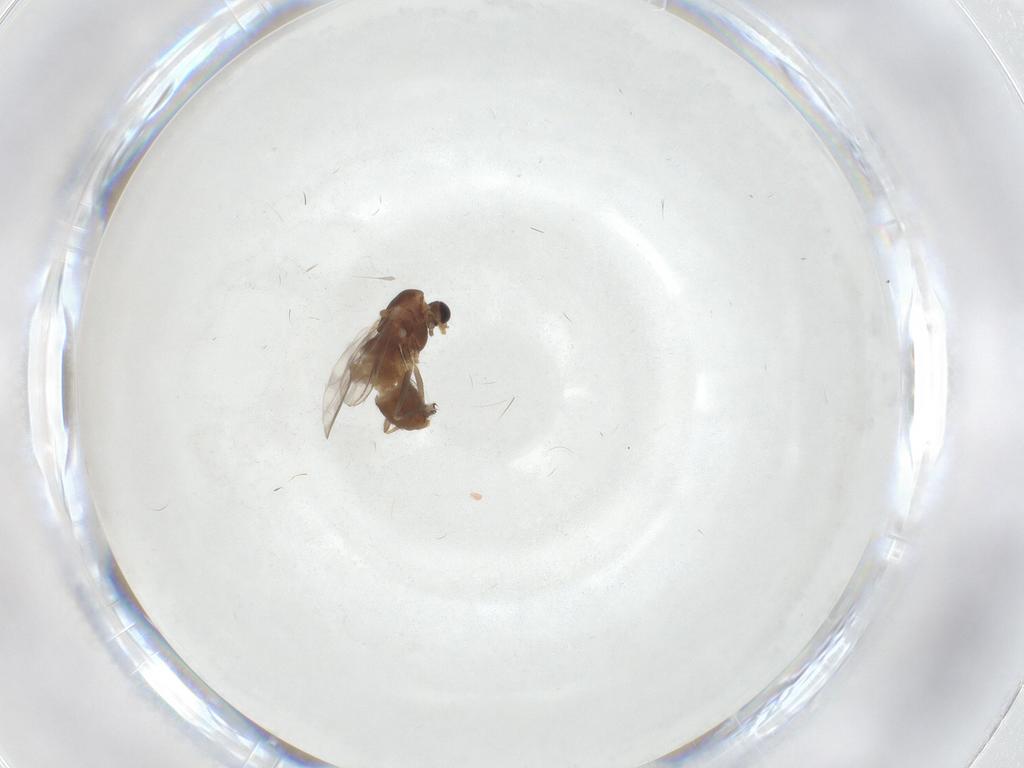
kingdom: Animalia
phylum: Arthropoda
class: Insecta
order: Diptera
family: Chironomidae
